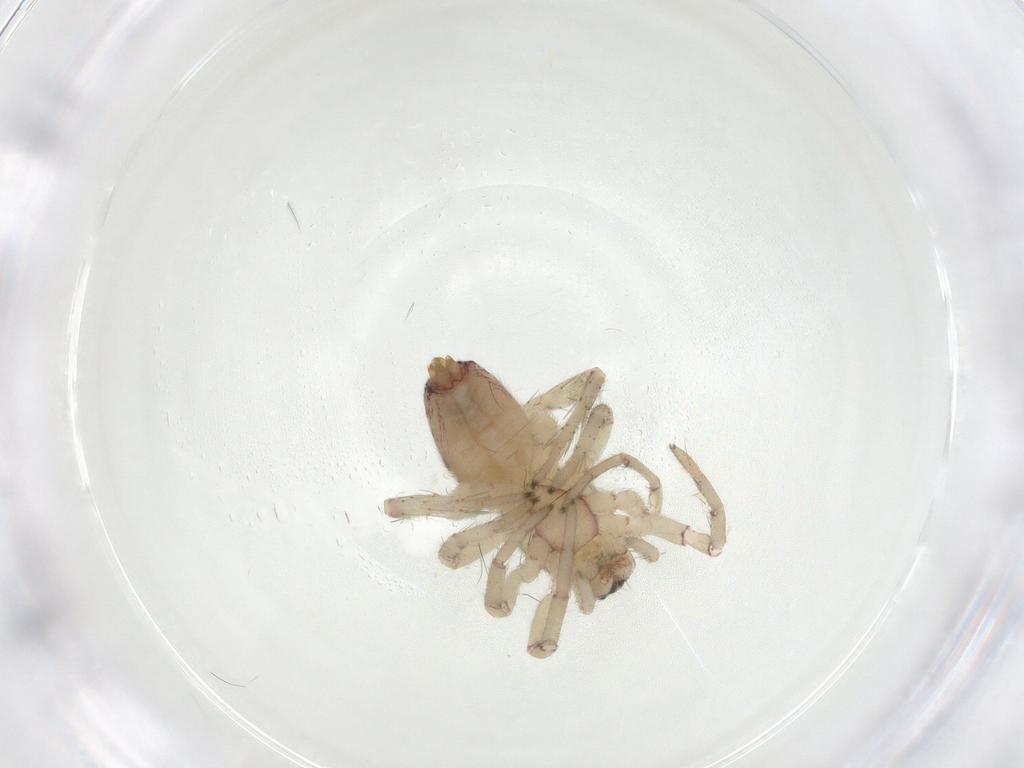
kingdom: Animalia
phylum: Arthropoda
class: Arachnida
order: Araneae
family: Clubionidae
